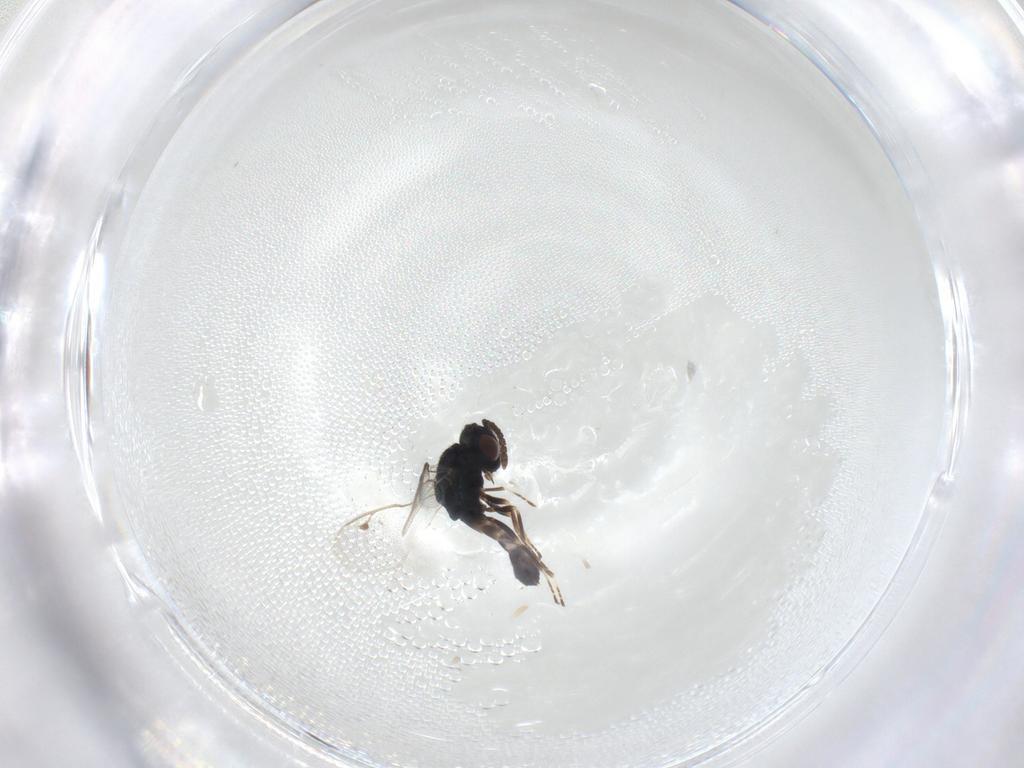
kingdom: Animalia
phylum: Arthropoda
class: Insecta
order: Hymenoptera
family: Pteromalidae
